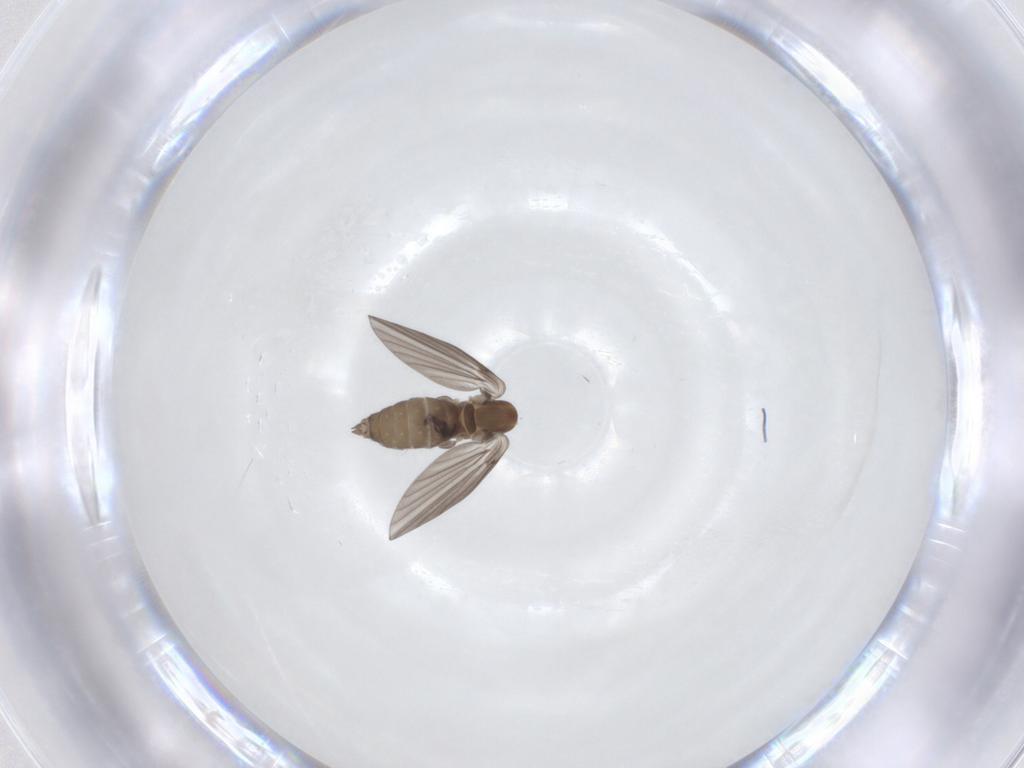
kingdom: Animalia
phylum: Arthropoda
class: Insecta
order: Diptera
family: Psychodidae
